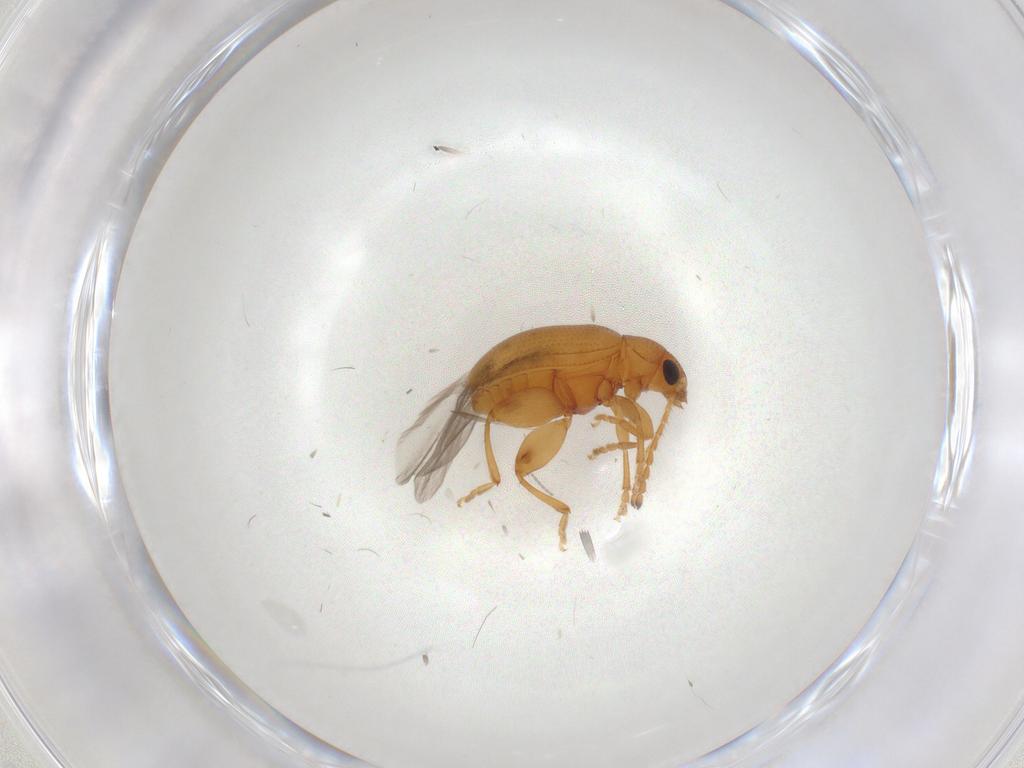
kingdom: Animalia
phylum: Arthropoda
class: Insecta
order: Coleoptera
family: Chrysomelidae
